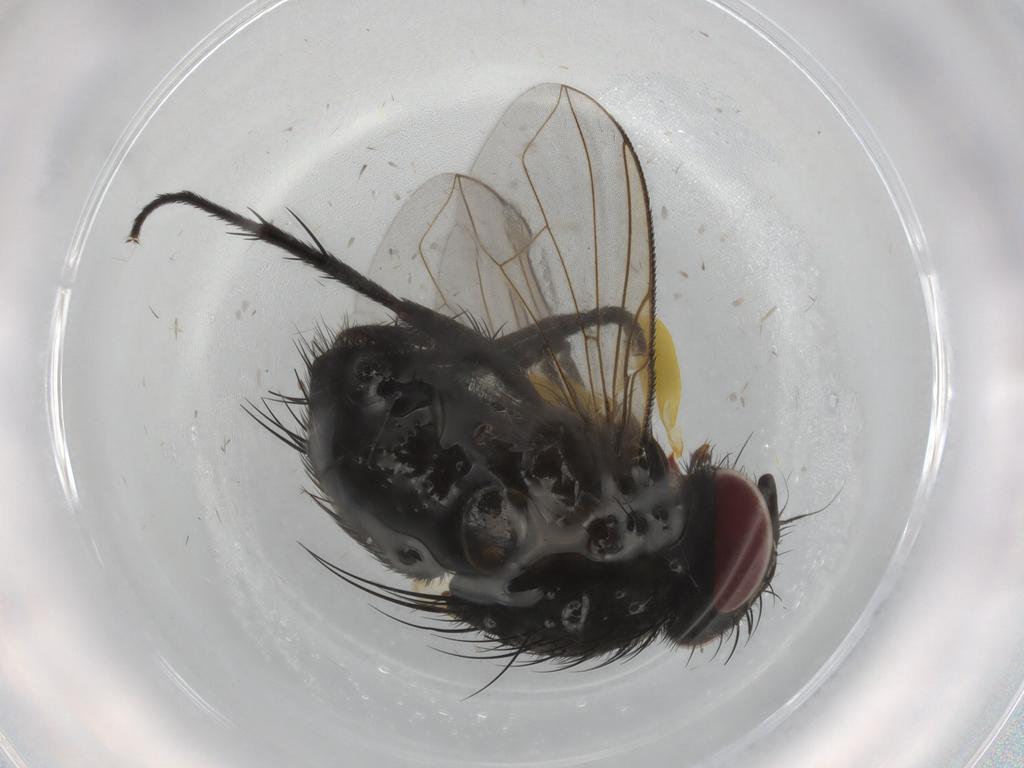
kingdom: Animalia
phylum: Arthropoda
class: Insecta
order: Diptera
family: Tachinidae
